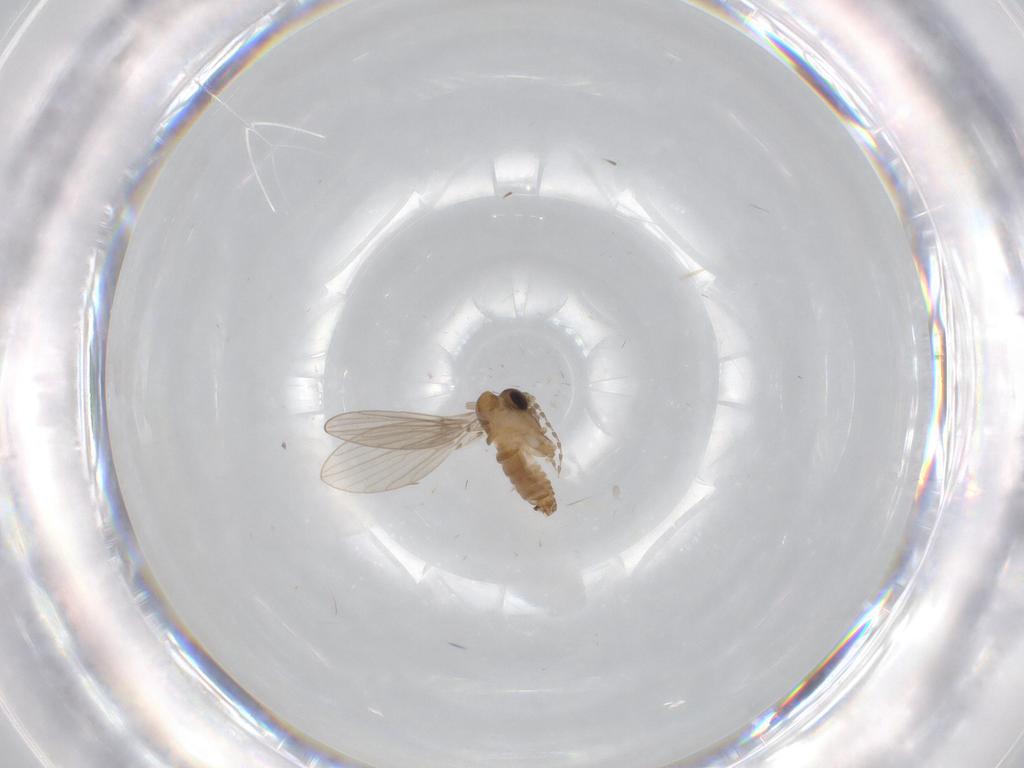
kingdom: Animalia
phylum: Arthropoda
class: Insecta
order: Diptera
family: Psychodidae
